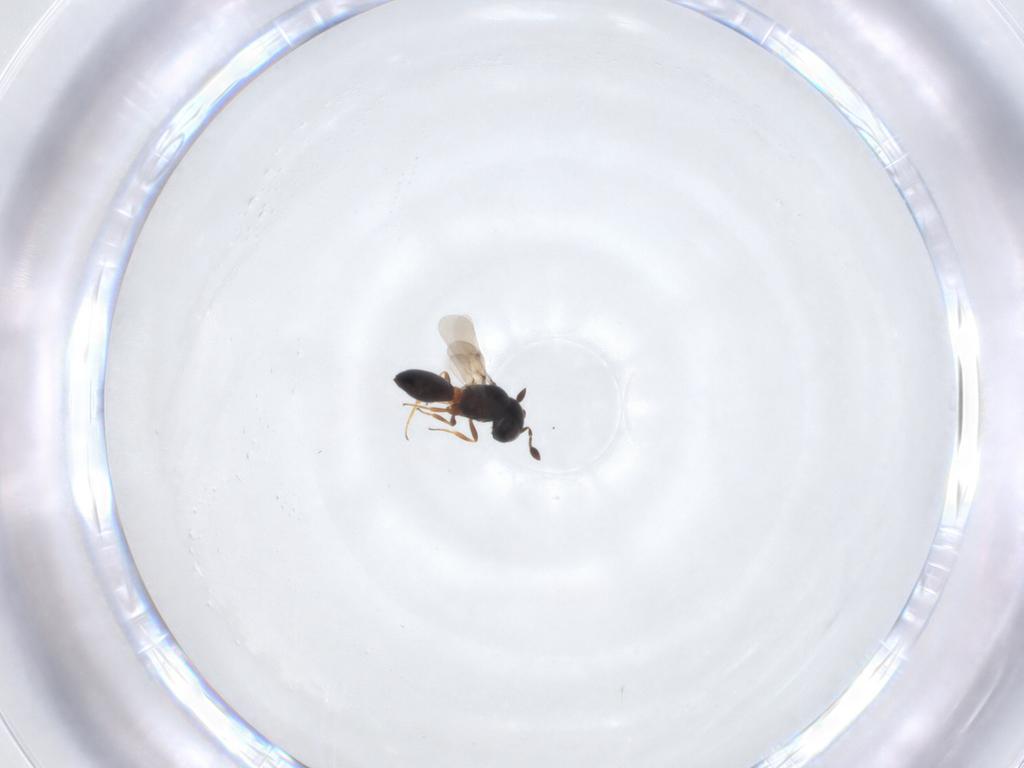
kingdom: Animalia
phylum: Arthropoda
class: Insecta
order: Hymenoptera
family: Scelionidae
